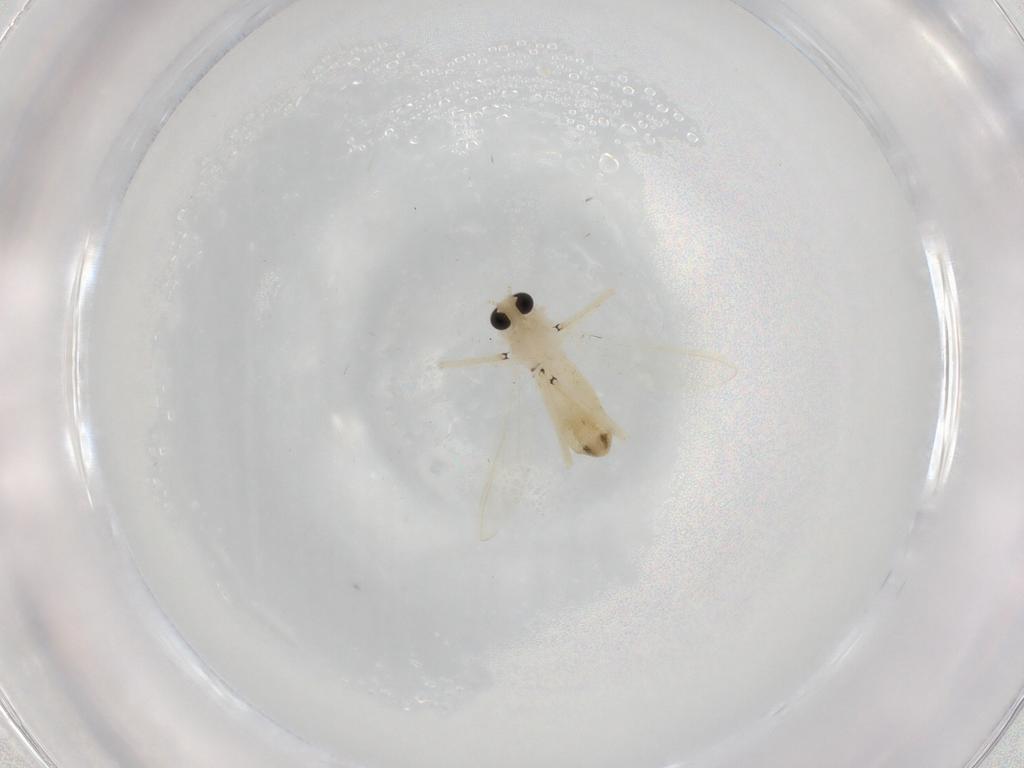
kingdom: Animalia
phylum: Arthropoda
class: Insecta
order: Diptera
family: Chironomidae
